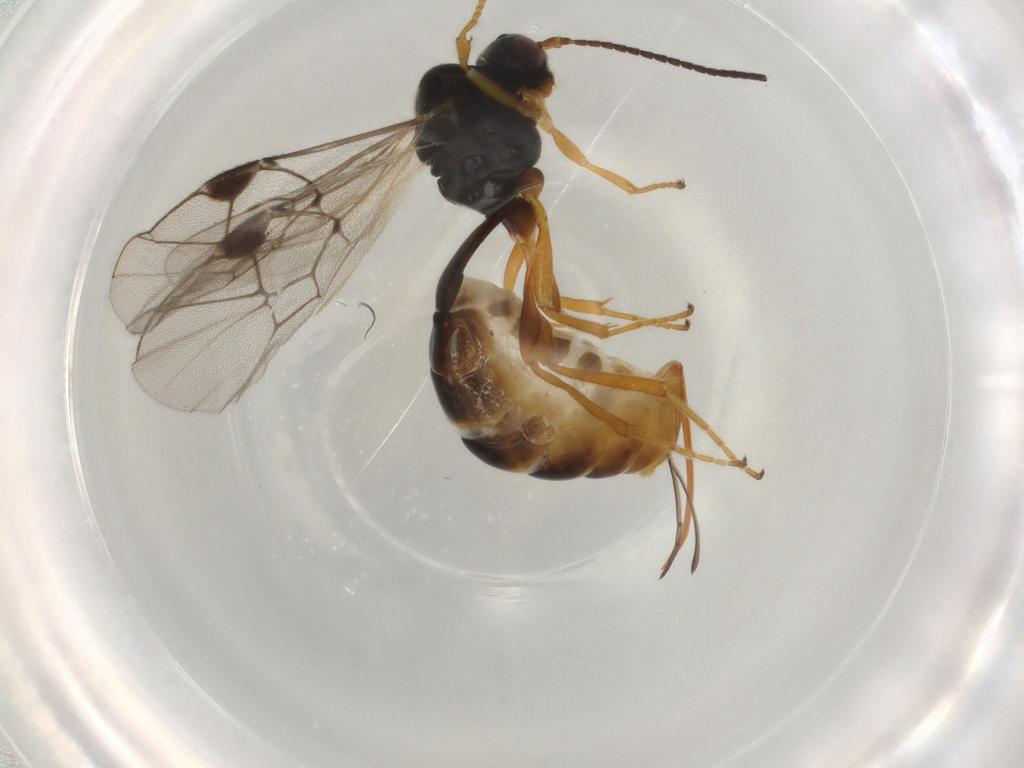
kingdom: Animalia
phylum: Arthropoda
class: Insecta
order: Hymenoptera
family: Ichneumonidae
